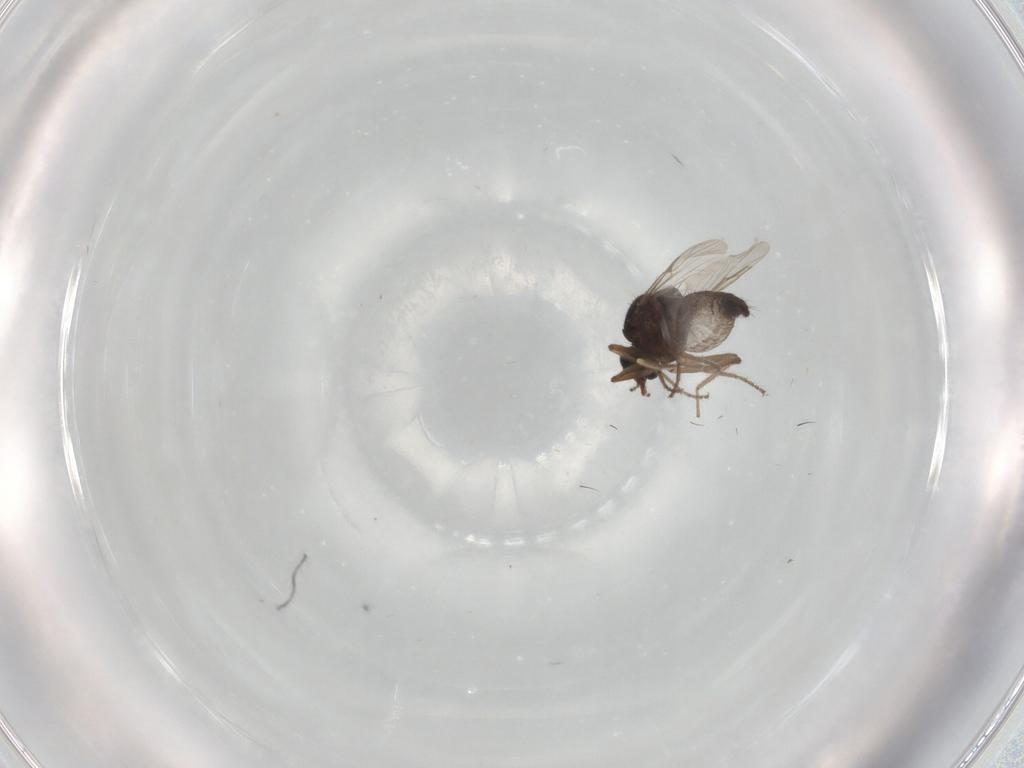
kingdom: Animalia
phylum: Arthropoda
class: Insecta
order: Diptera
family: Ceratopogonidae
